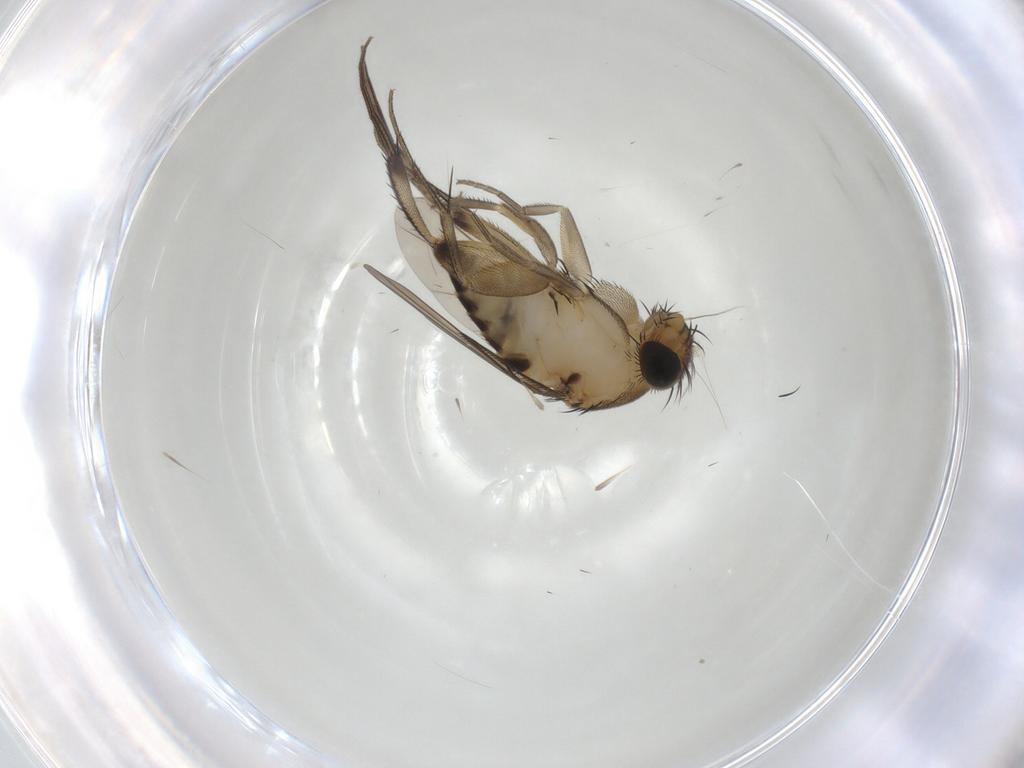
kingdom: Animalia
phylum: Arthropoda
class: Insecta
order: Diptera
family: Phoridae
